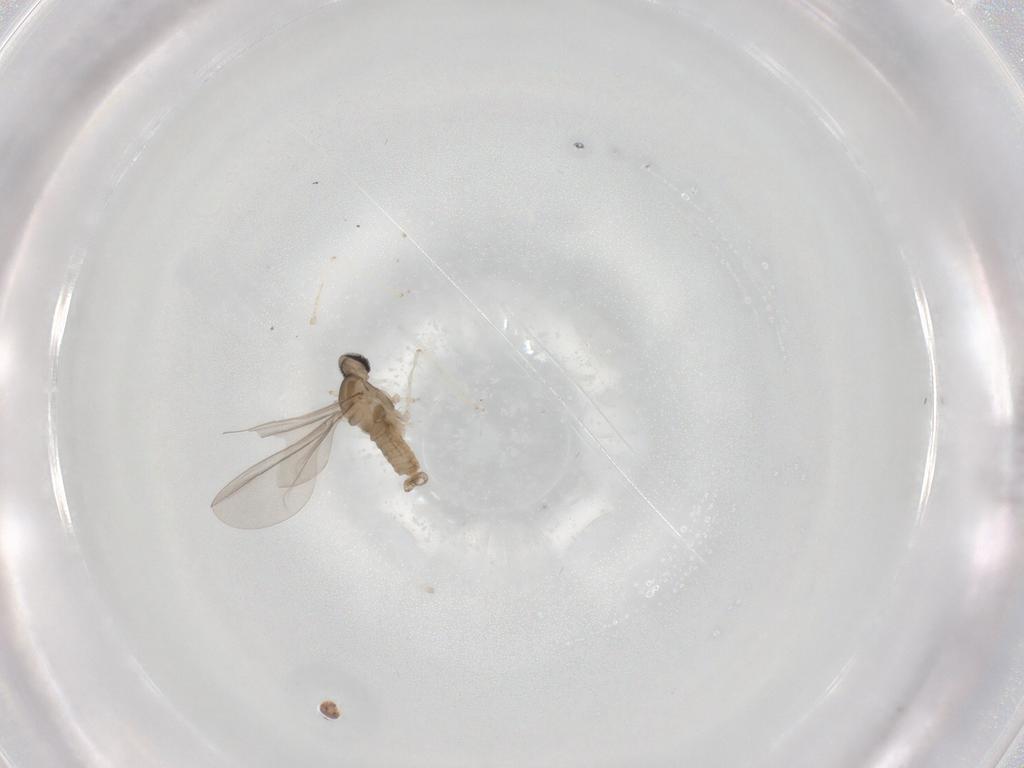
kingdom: Animalia
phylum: Arthropoda
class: Insecta
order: Diptera
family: Cecidomyiidae
